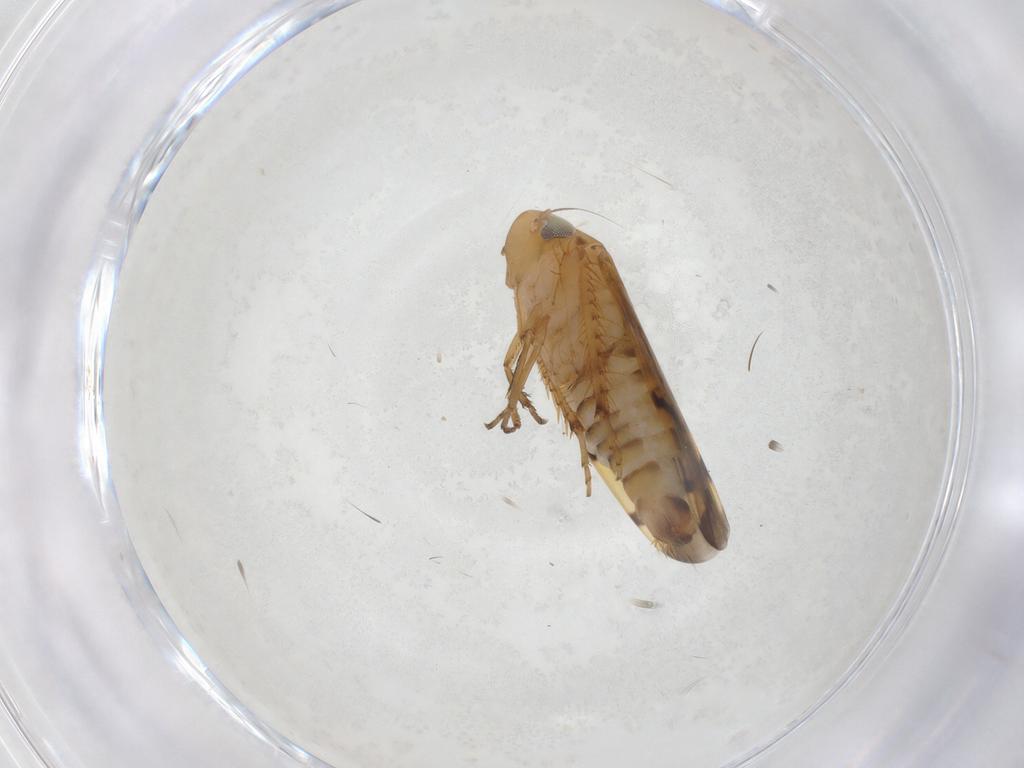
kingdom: Animalia
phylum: Arthropoda
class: Insecta
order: Hemiptera
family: Cicadellidae
